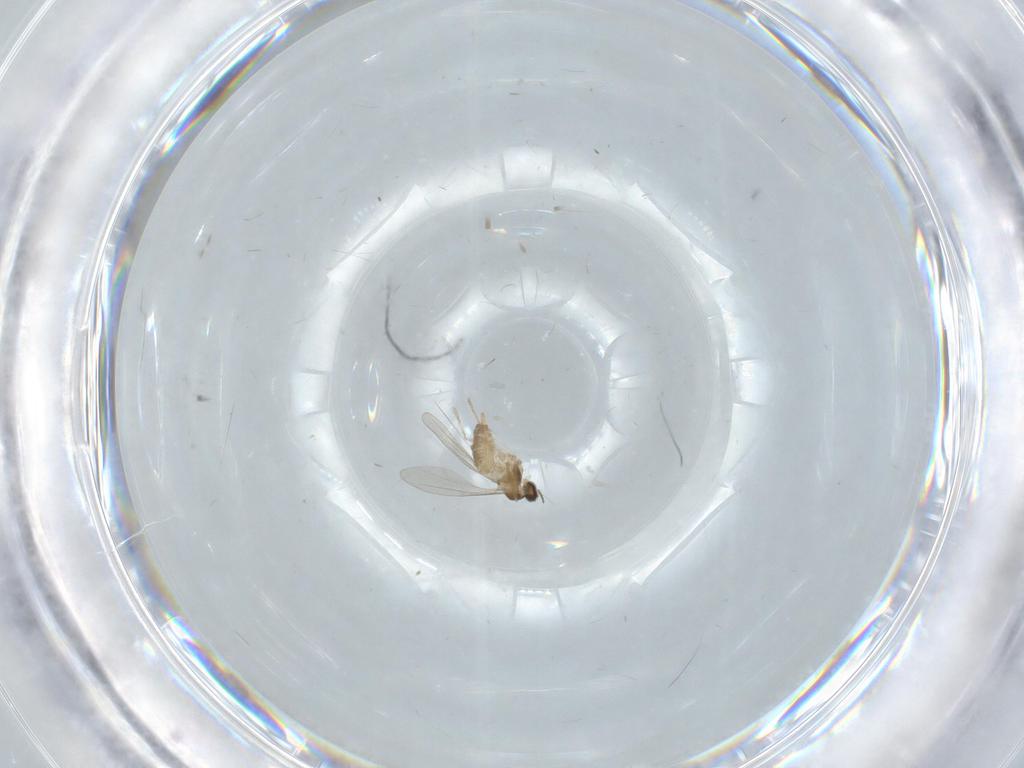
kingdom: Animalia
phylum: Arthropoda
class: Insecta
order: Diptera
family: Cecidomyiidae
